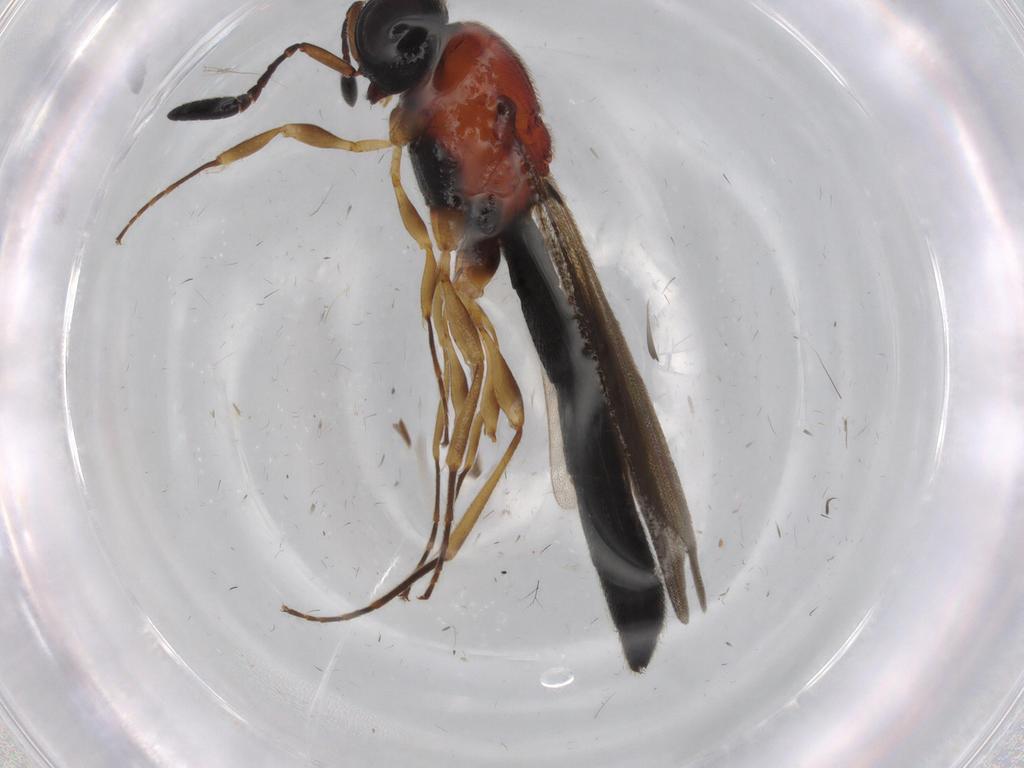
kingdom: Animalia
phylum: Arthropoda
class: Insecta
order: Hymenoptera
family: Scelionidae
